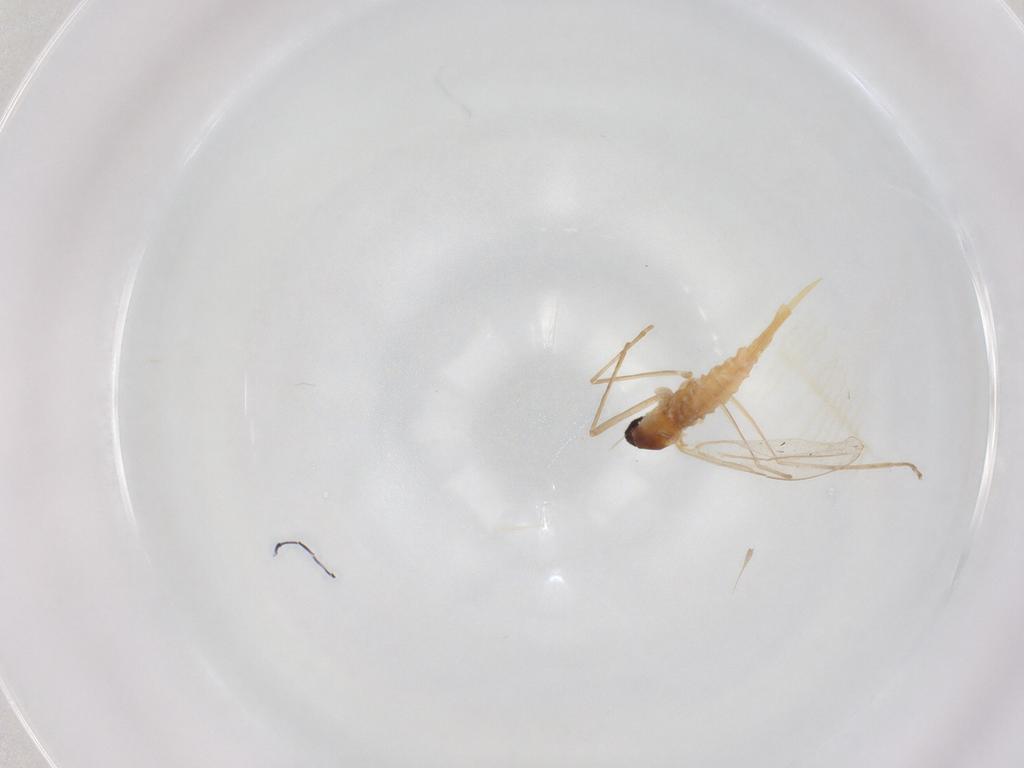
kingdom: Animalia
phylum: Arthropoda
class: Insecta
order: Diptera
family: Cecidomyiidae
